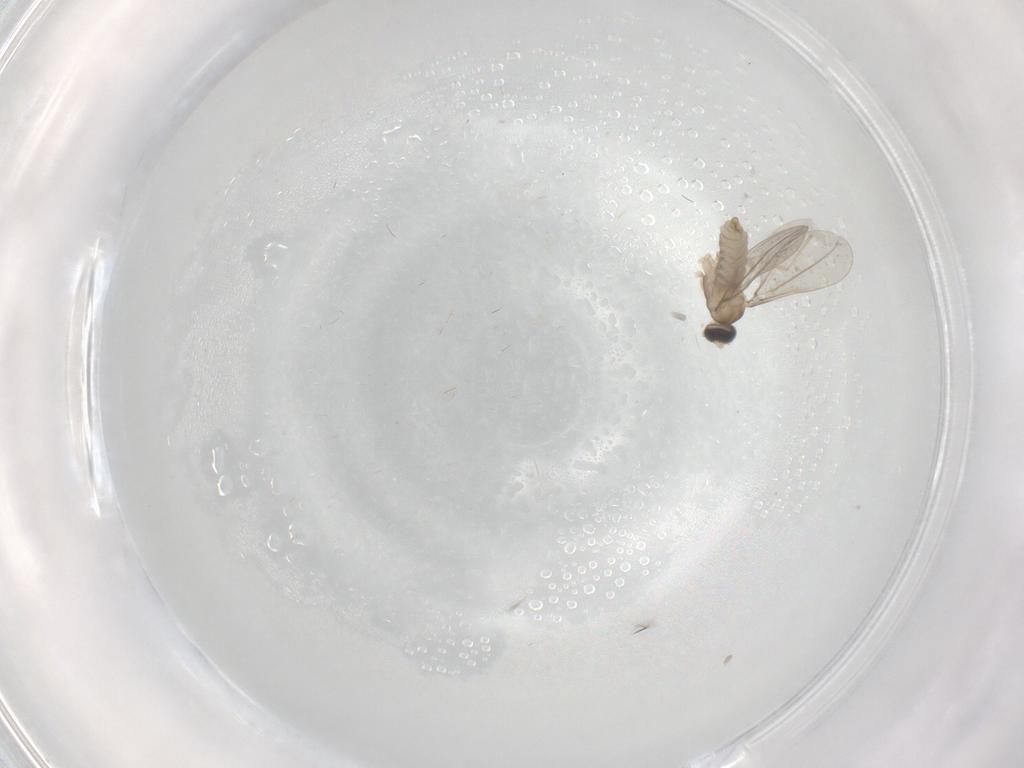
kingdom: Animalia
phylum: Arthropoda
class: Insecta
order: Diptera
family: Cecidomyiidae
